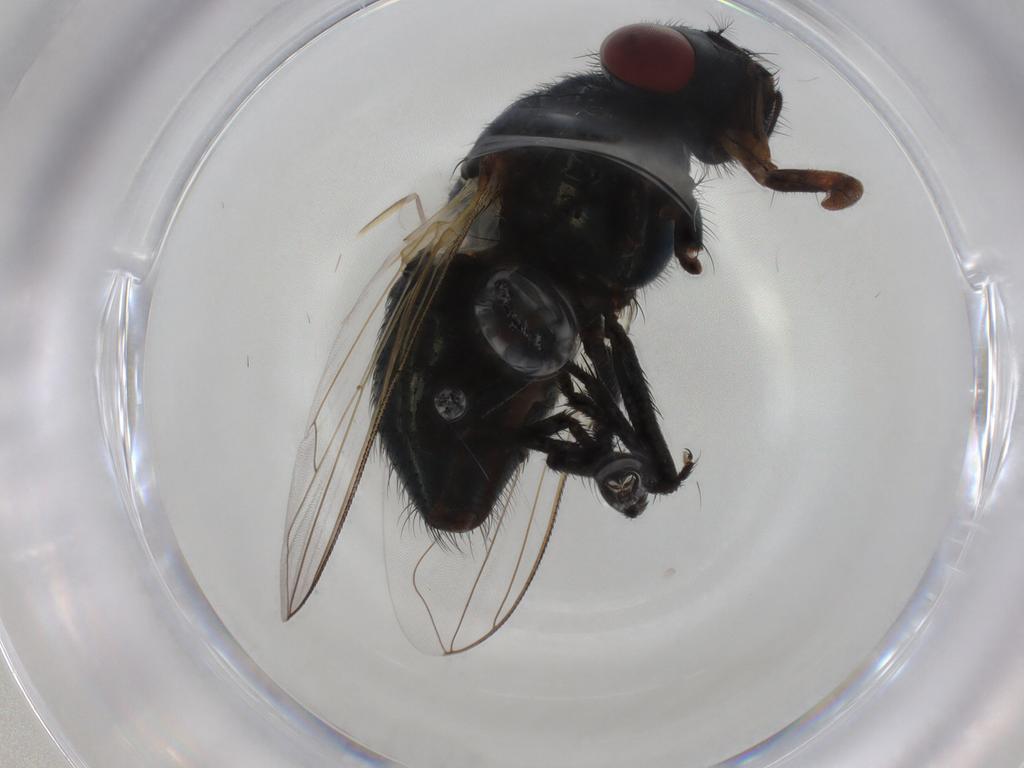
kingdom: Animalia
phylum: Arthropoda
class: Insecta
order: Diptera
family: Muscidae
